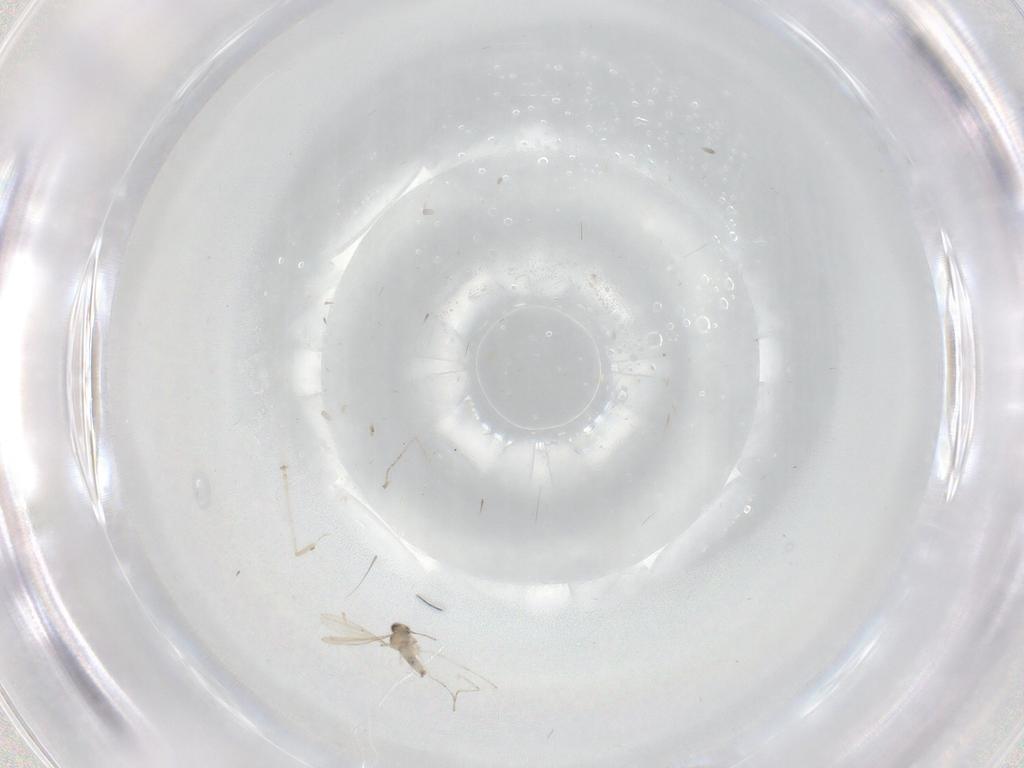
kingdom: Animalia
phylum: Arthropoda
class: Insecta
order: Diptera
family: Cecidomyiidae
